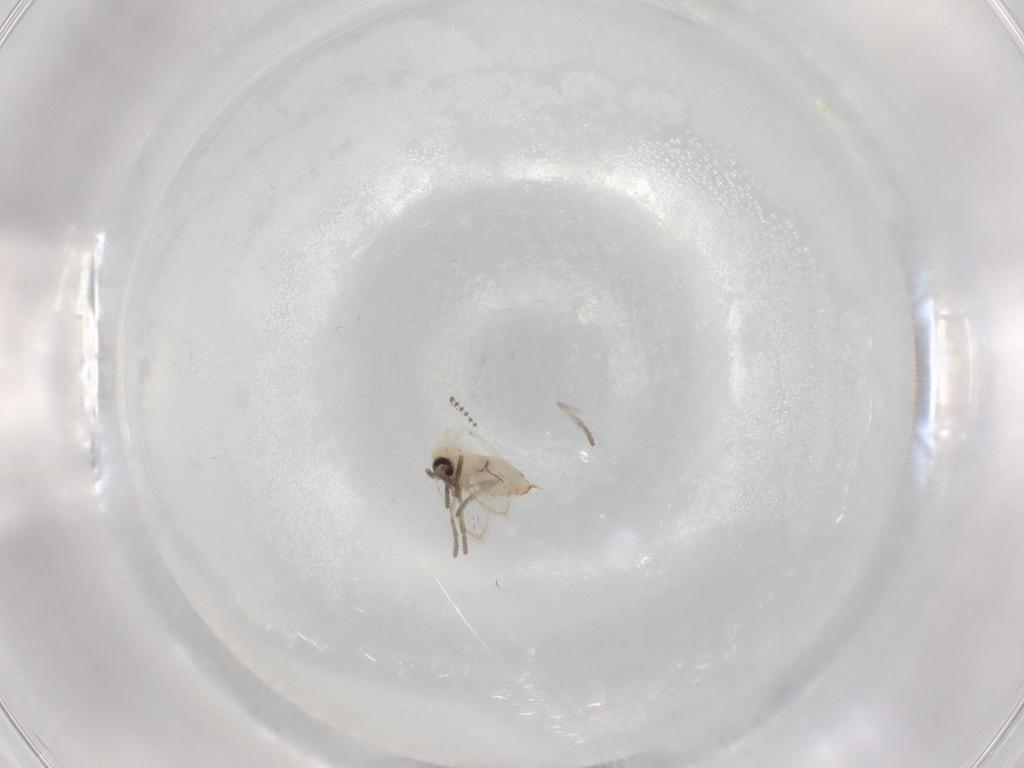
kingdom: Animalia
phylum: Arthropoda
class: Insecta
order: Diptera
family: Psychodidae
